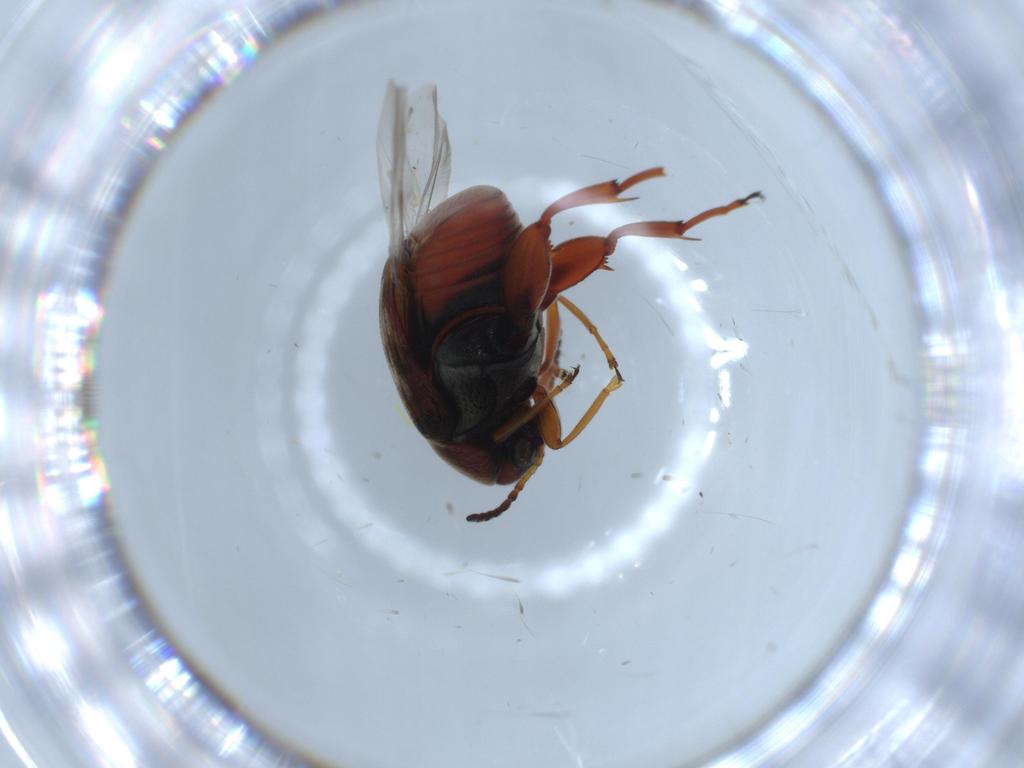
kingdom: Animalia
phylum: Arthropoda
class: Insecta
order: Coleoptera
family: Chrysomelidae
